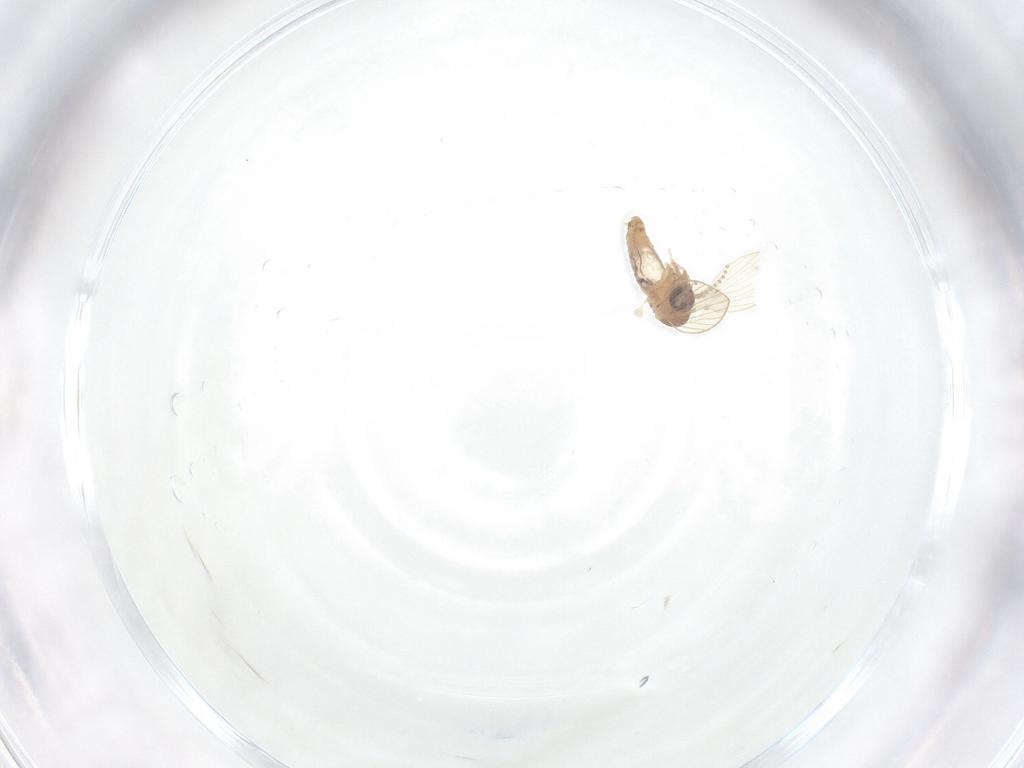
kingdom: Animalia
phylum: Arthropoda
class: Insecta
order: Diptera
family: Psychodidae
